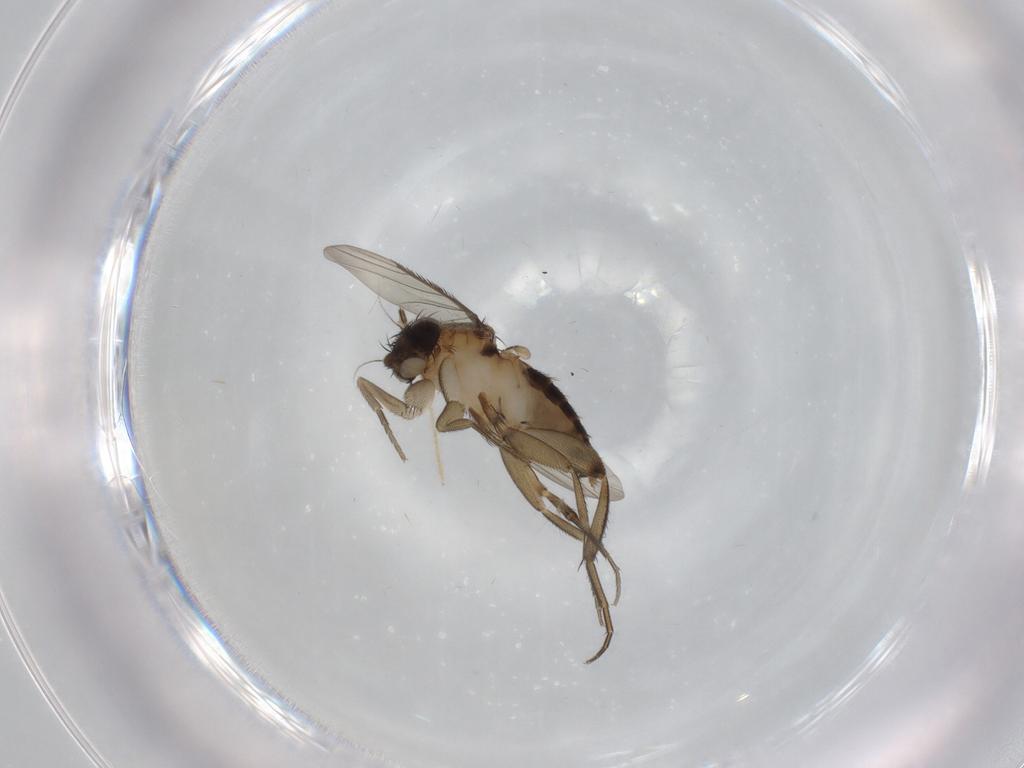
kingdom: Animalia
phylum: Arthropoda
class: Insecta
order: Diptera
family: Phoridae
